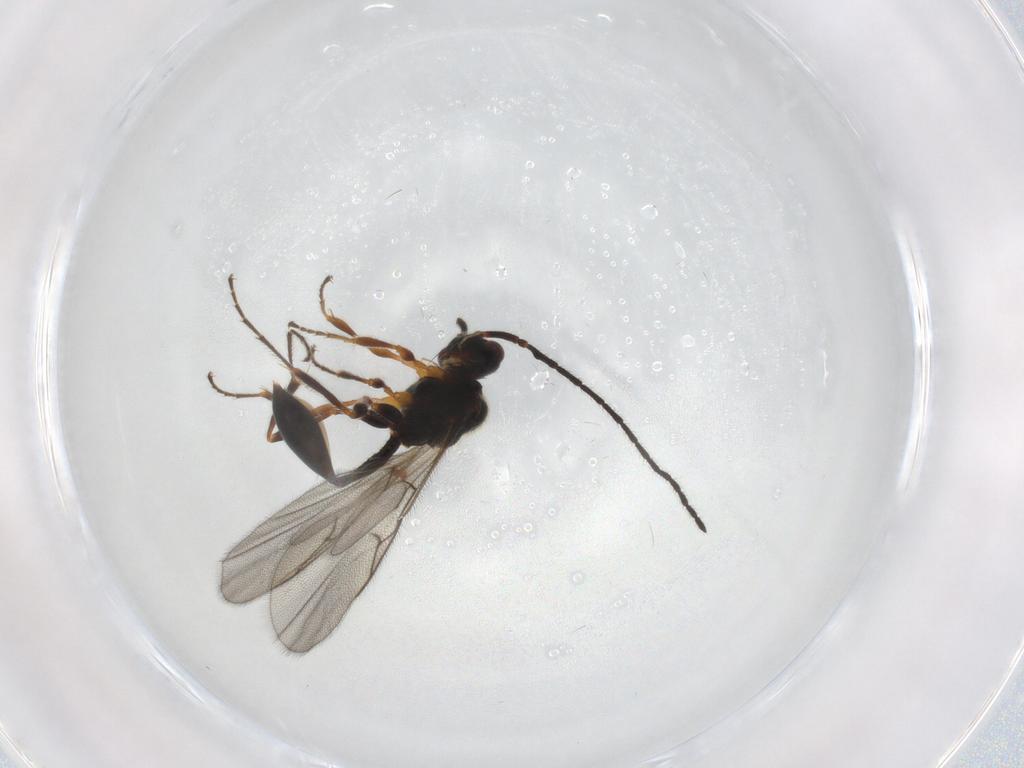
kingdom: Animalia
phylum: Arthropoda
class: Insecta
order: Hymenoptera
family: Diapriidae
